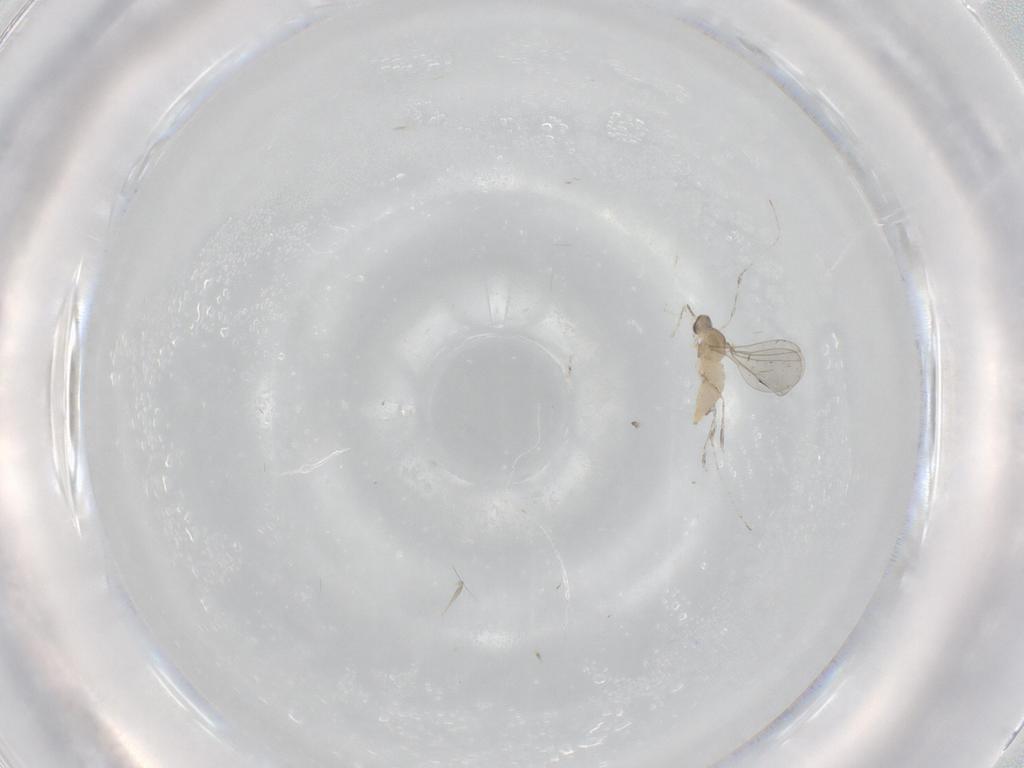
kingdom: Animalia
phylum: Arthropoda
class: Insecta
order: Diptera
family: Cecidomyiidae
